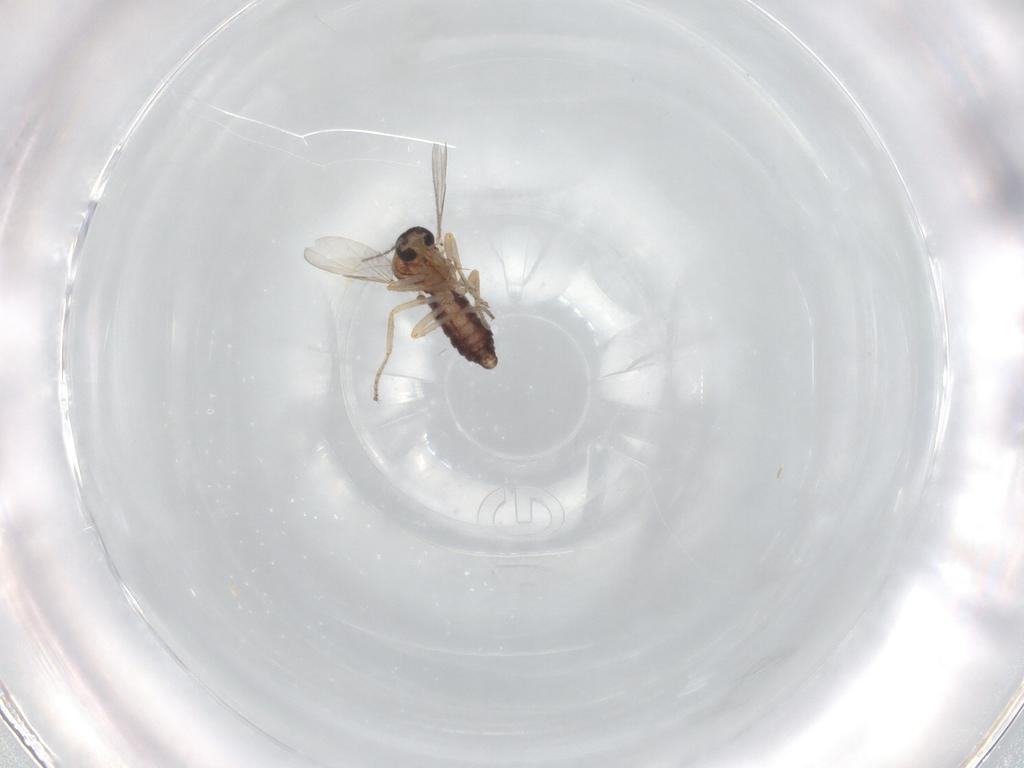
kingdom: Animalia
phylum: Arthropoda
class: Insecta
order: Diptera
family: Ceratopogonidae
